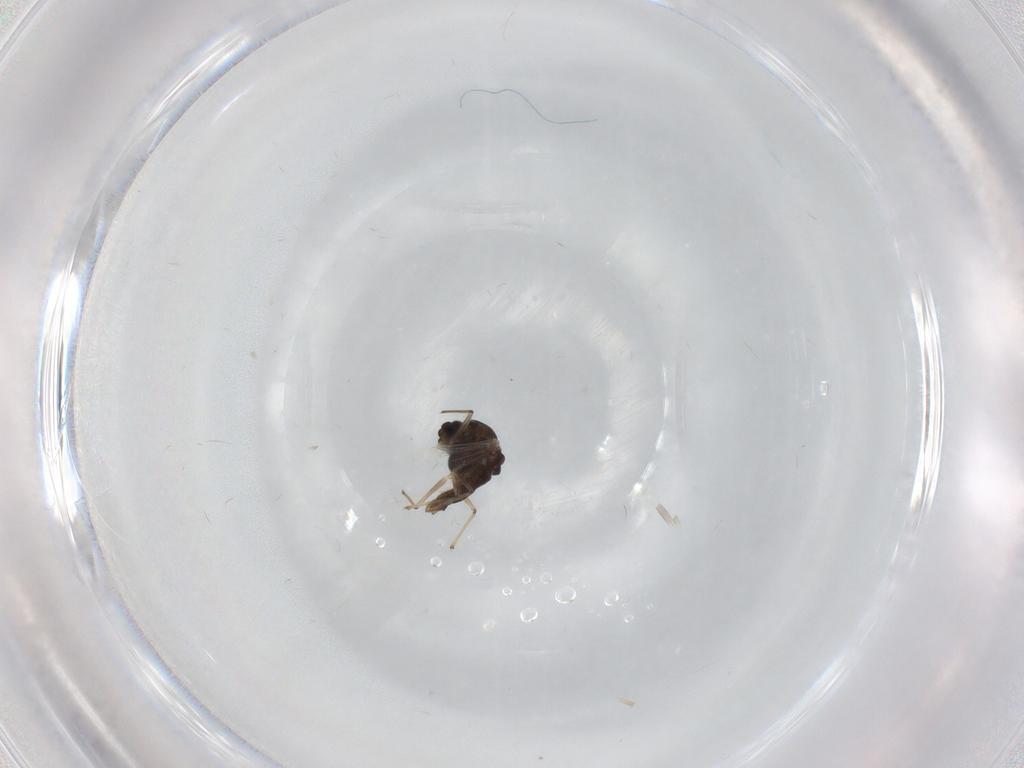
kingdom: Animalia
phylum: Arthropoda
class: Insecta
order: Diptera
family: Chironomidae
